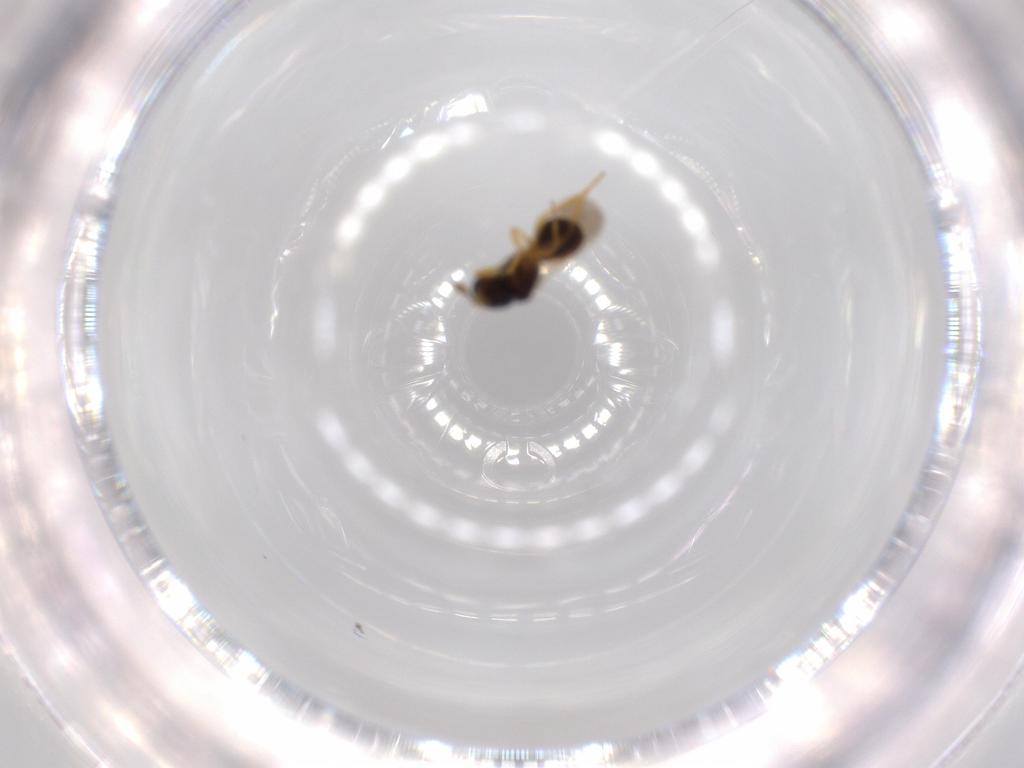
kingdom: Animalia
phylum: Arthropoda
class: Insecta
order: Hymenoptera
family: Scelionidae
